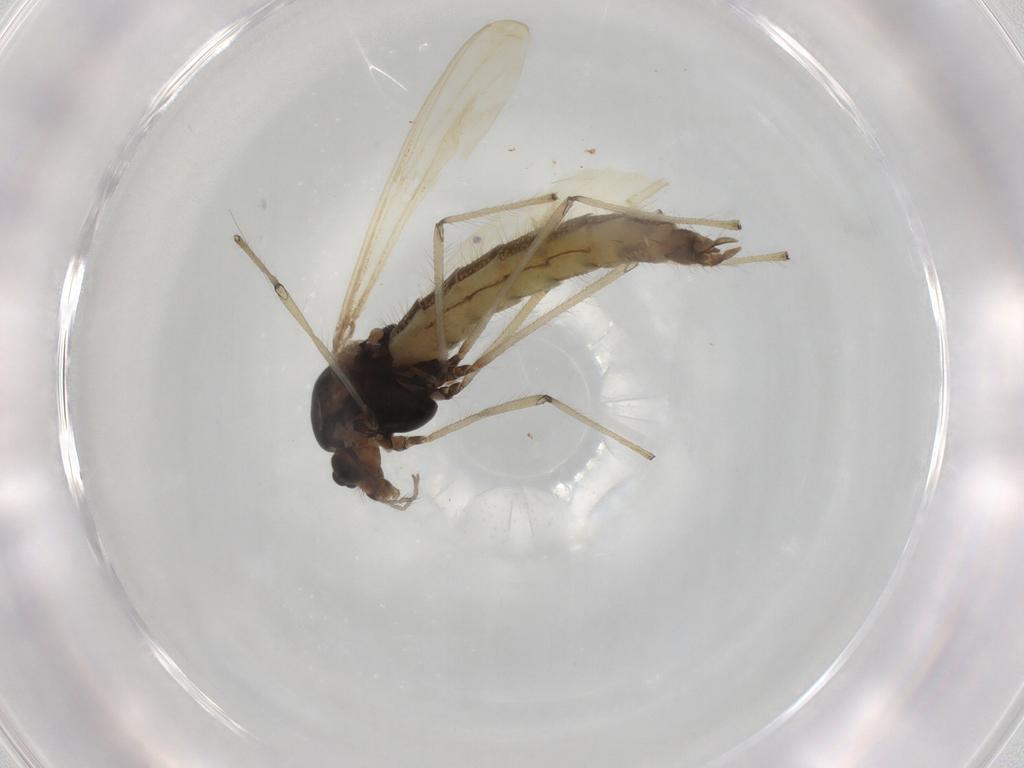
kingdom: Animalia
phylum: Arthropoda
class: Insecta
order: Diptera
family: Chironomidae
